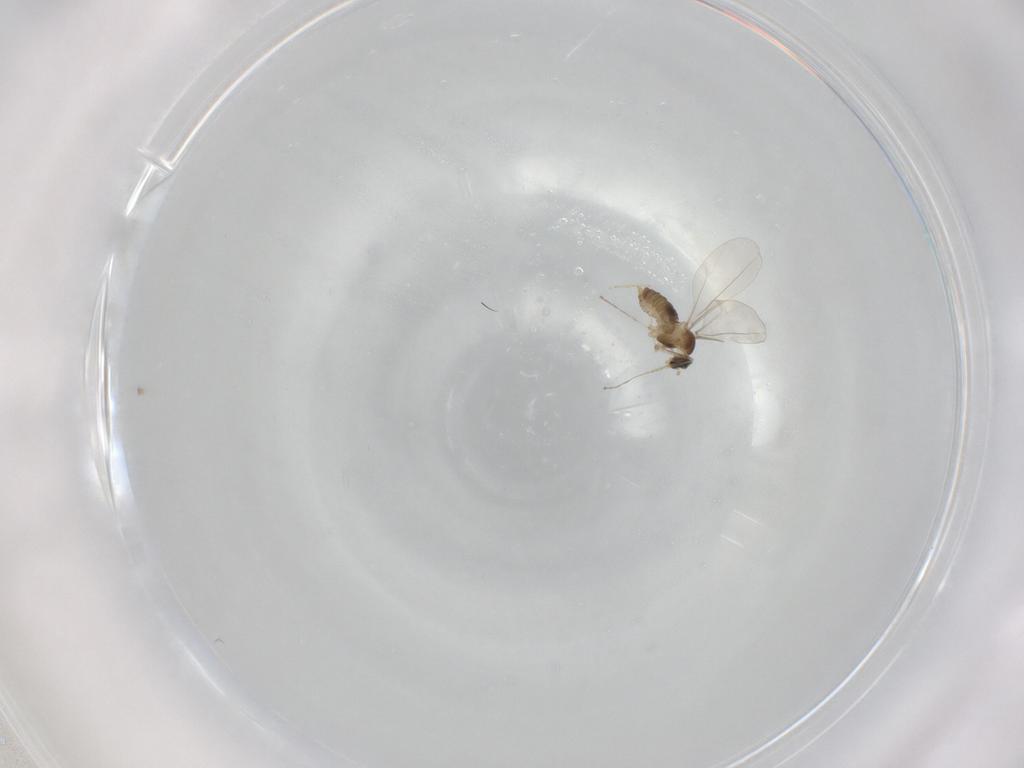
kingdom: Animalia
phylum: Arthropoda
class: Insecta
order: Diptera
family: Cecidomyiidae
